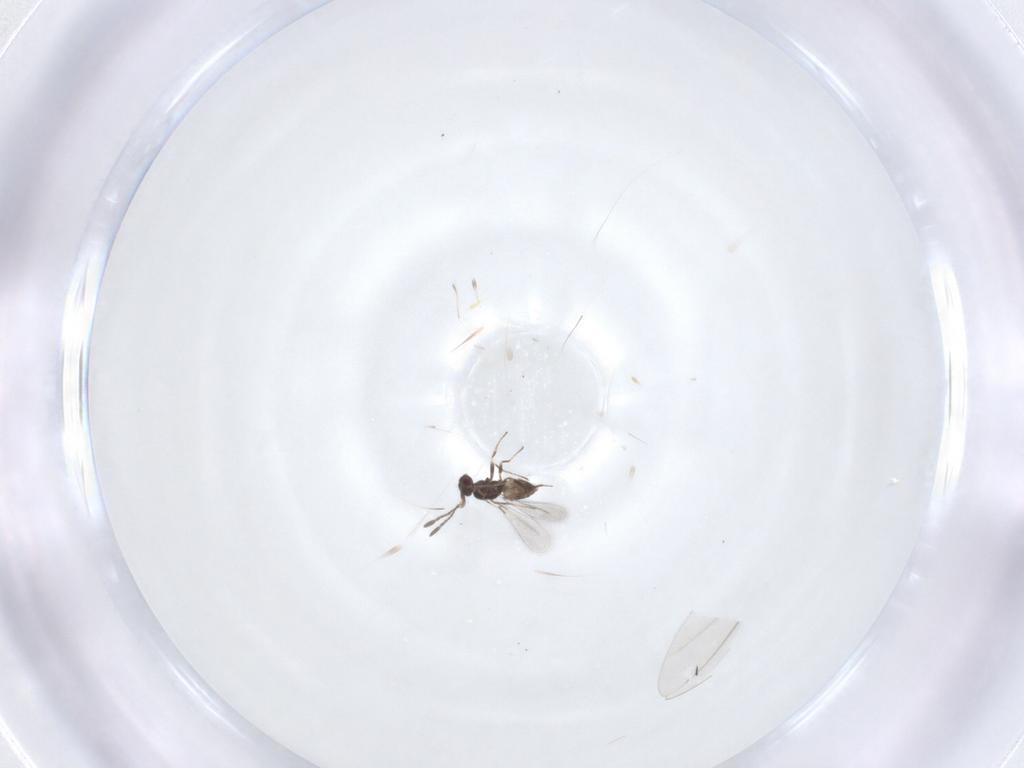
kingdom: Animalia
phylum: Arthropoda
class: Insecta
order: Hymenoptera
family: Mymaridae
